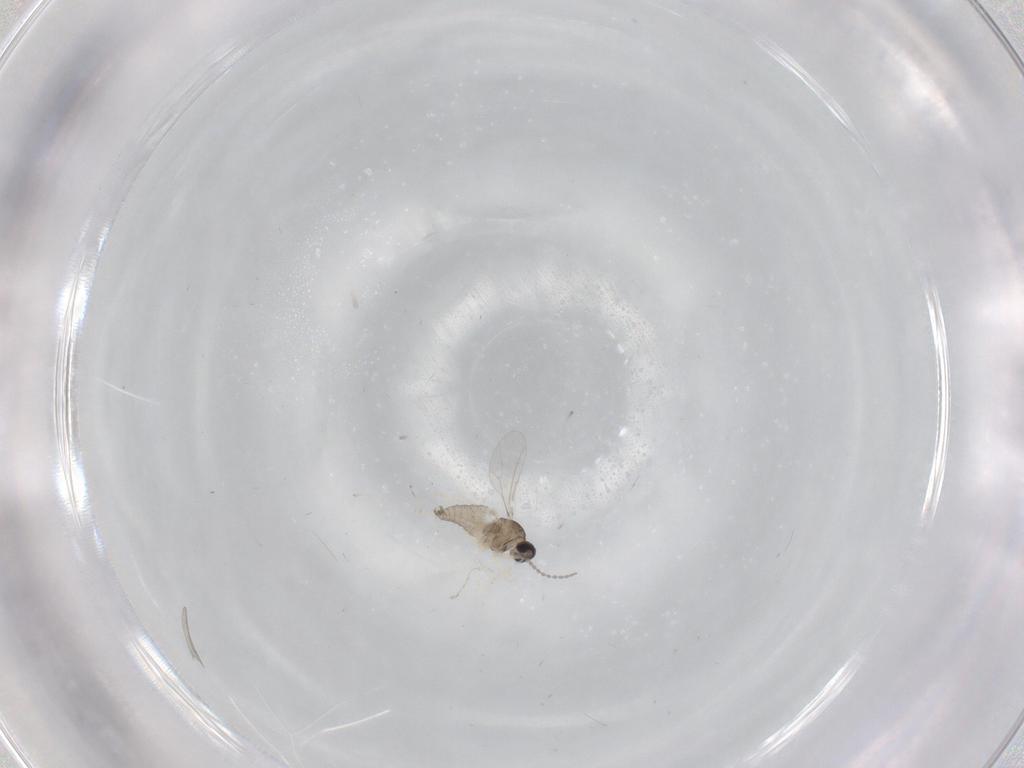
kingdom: Animalia
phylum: Arthropoda
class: Insecta
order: Diptera
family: Cecidomyiidae
